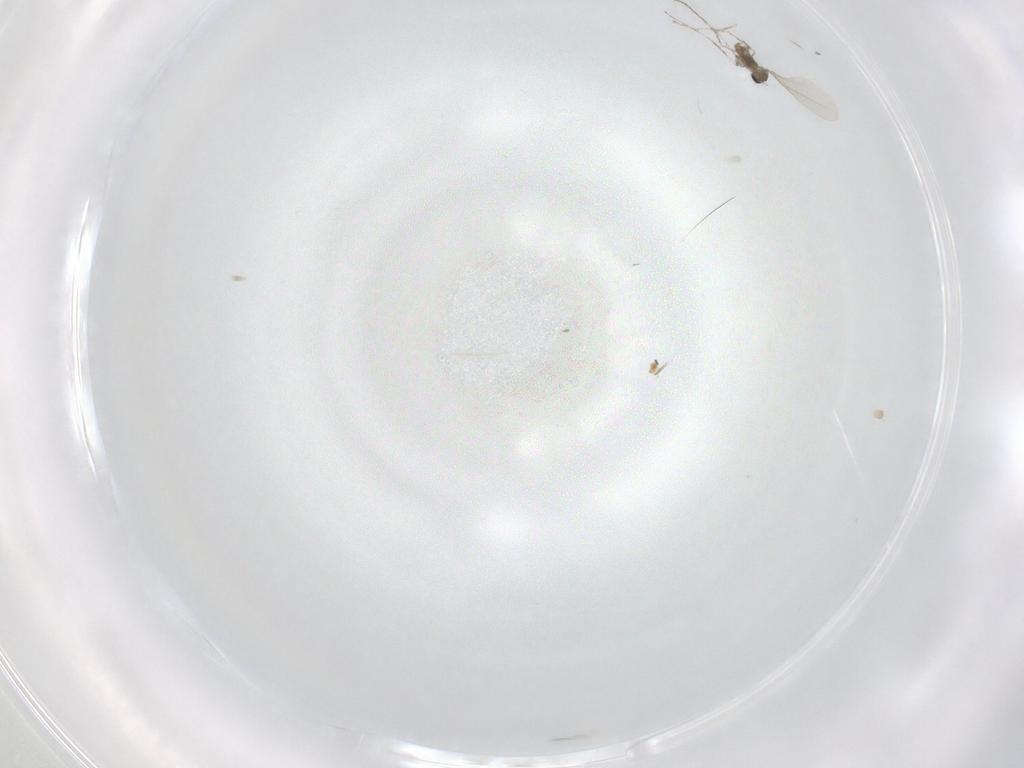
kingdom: Animalia
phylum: Arthropoda
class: Insecta
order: Diptera
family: Cecidomyiidae
